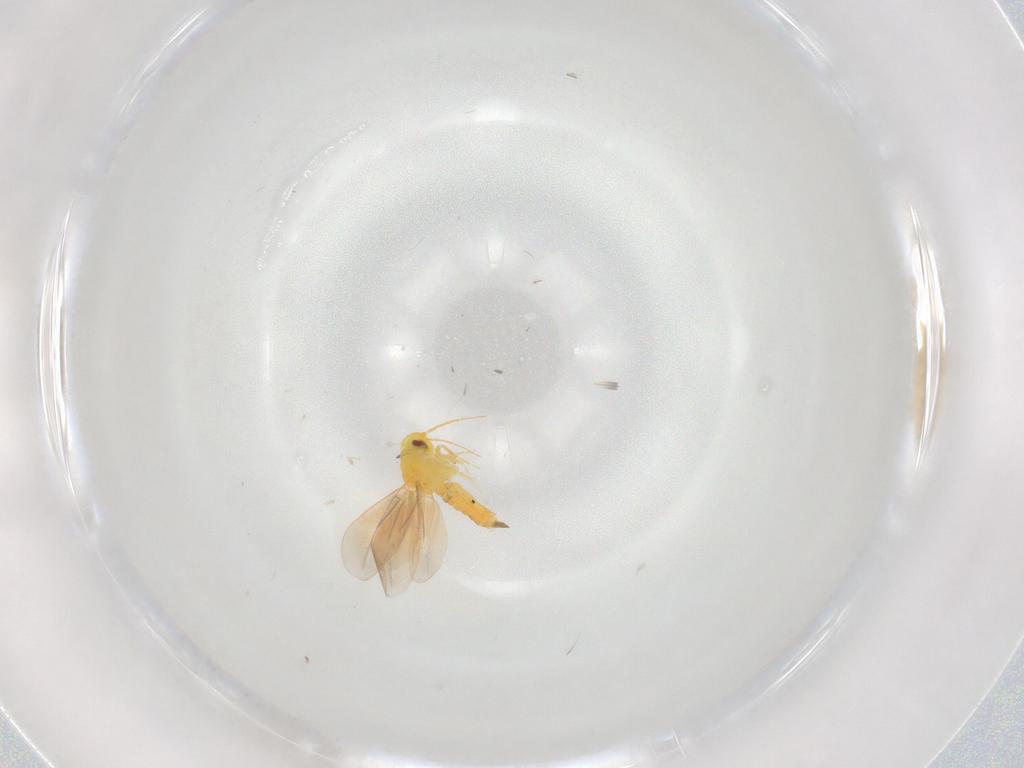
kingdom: Animalia
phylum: Arthropoda
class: Insecta
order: Hemiptera
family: Aleyrodidae
